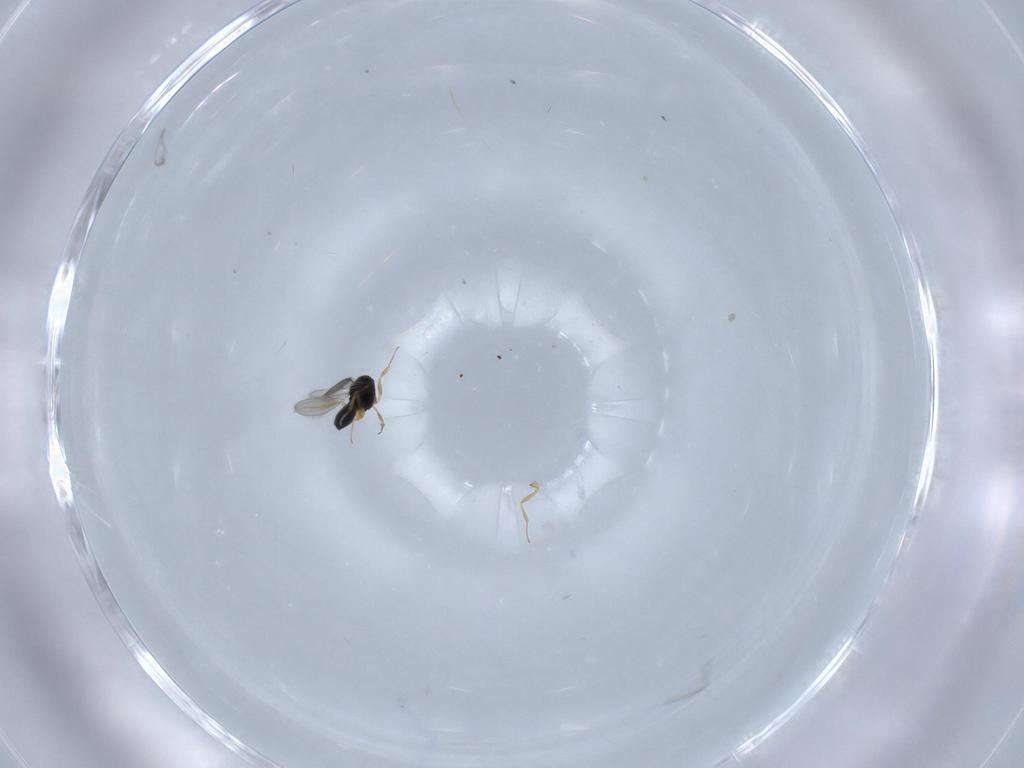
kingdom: Animalia
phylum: Arthropoda
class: Insecta
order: Hymenoptera
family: Scelionidae
